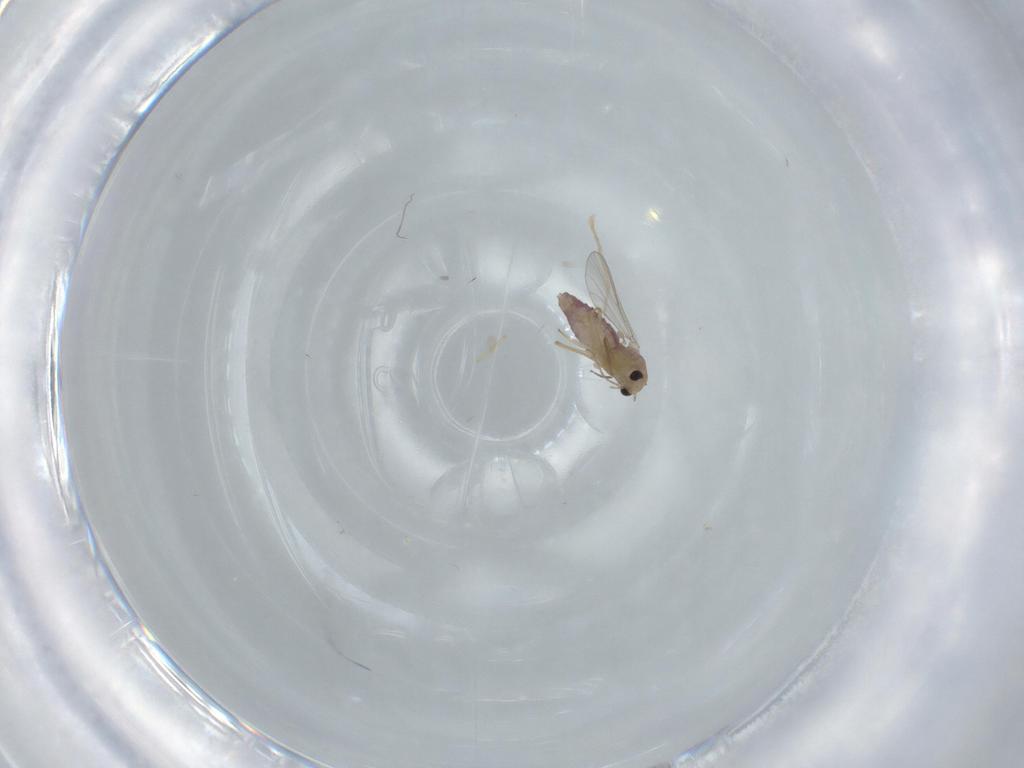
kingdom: Animalia
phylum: Arthropoda
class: Insecta
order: Diptera
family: Chironomidae
